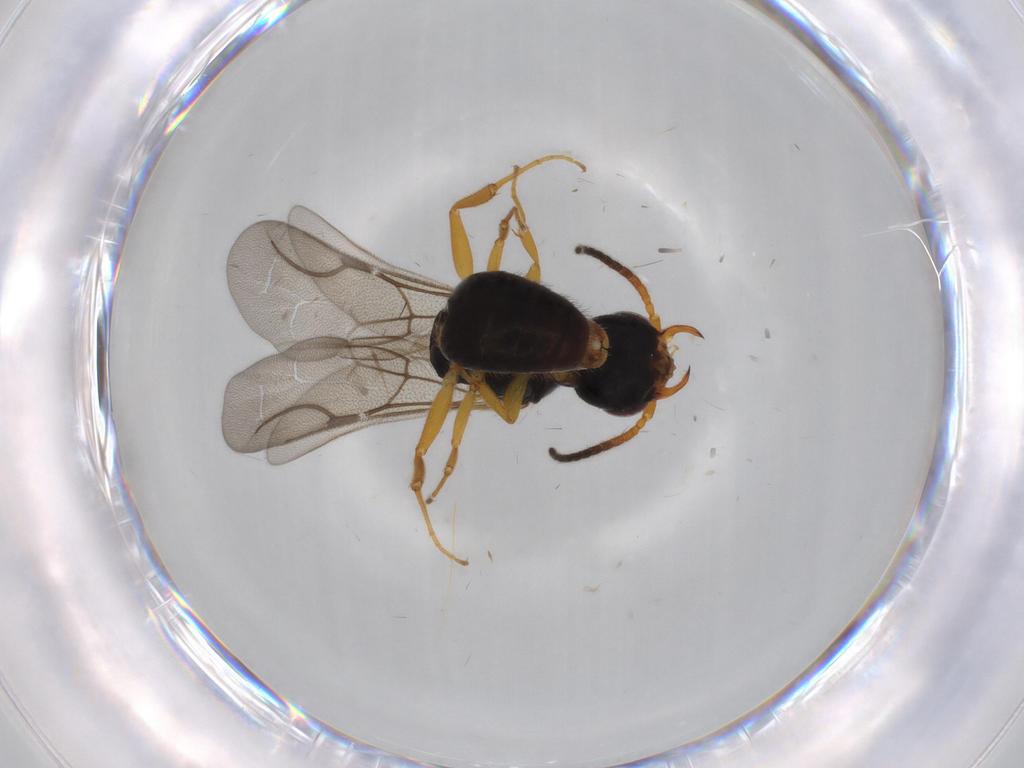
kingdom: Animalia
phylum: Arthropoda
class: Insecta
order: Hymenoptera
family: Bethylidae
